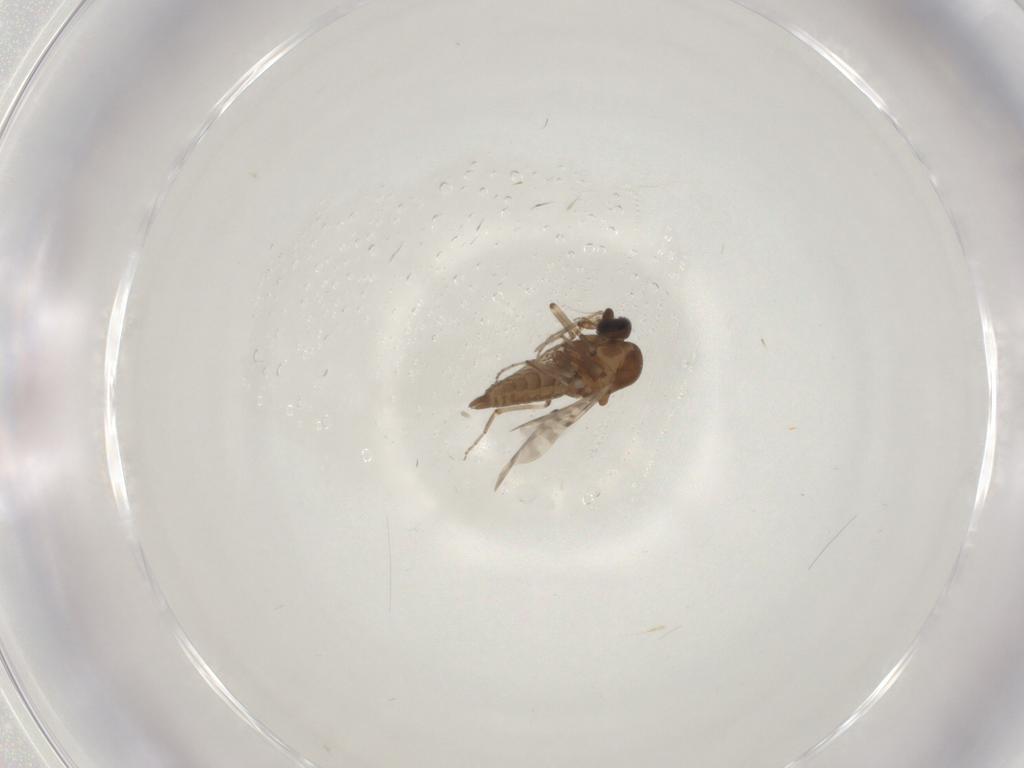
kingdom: Animalia
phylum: Arthropoda
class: Insecta
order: Diptera
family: Limoniidae
